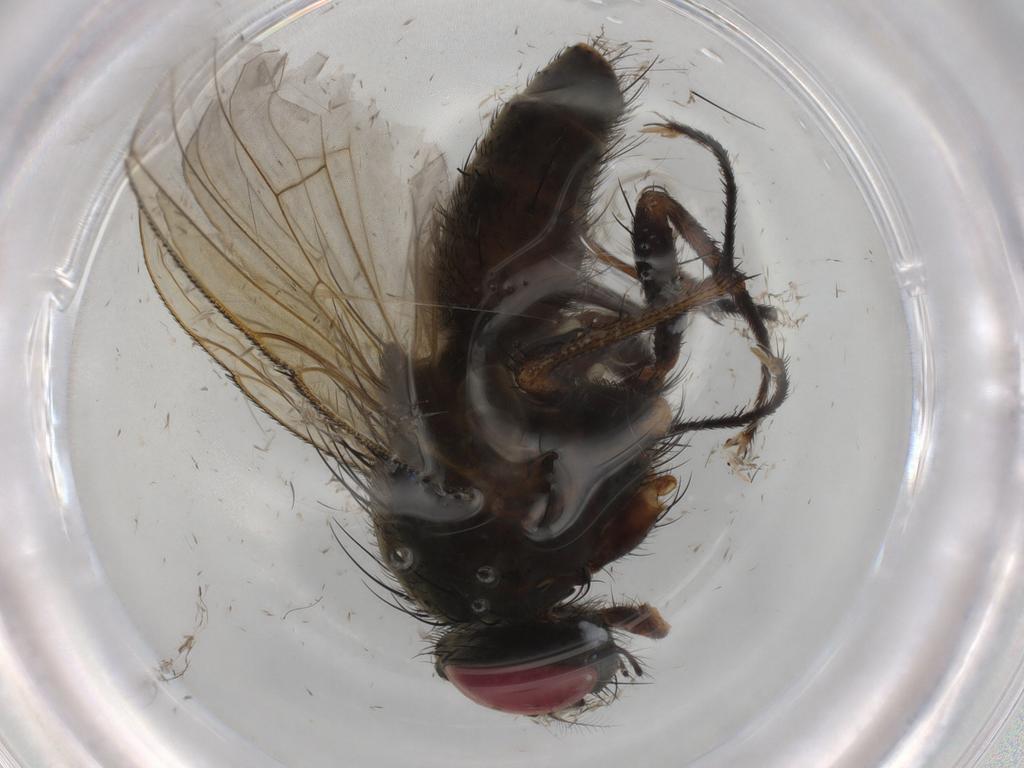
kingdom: Animalia
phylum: Arthropoda
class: Insecta
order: Diptera
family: Muscidae
